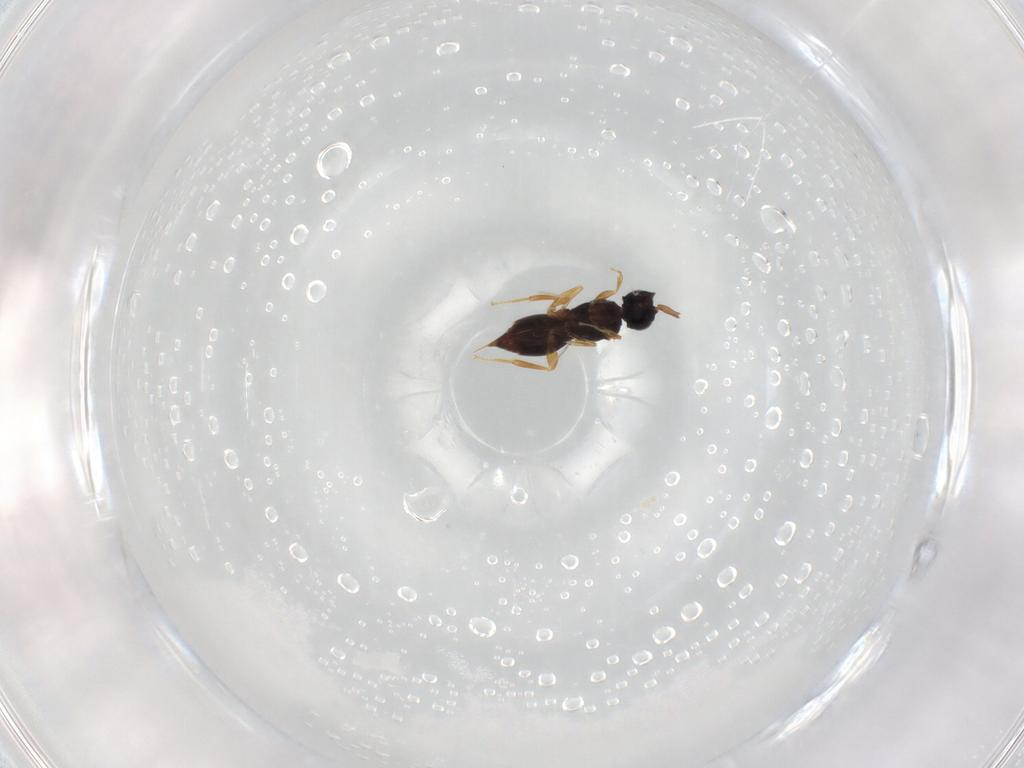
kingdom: Animalia
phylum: Arthropoda
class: Insecta
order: Hymenoptera
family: Ceraphronidae
